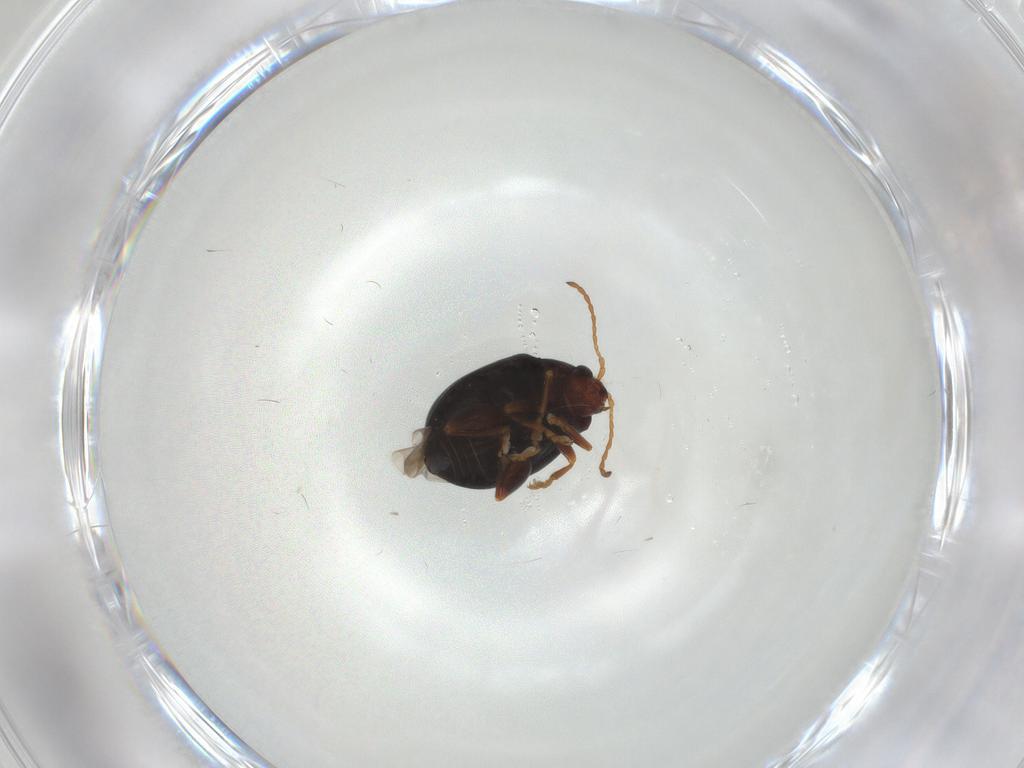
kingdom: Animalia
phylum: Arthropoda
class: Insecta
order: Coleoptera
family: Chrysomelidae
